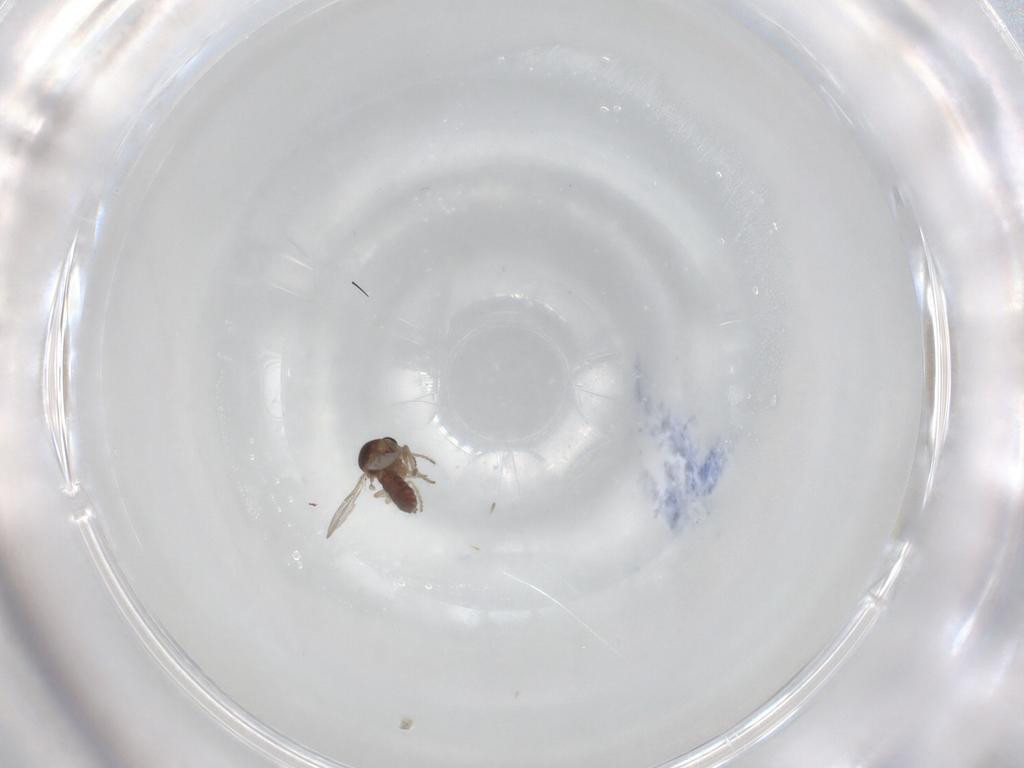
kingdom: Animalia
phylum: Arthropoda
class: Insecta
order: Diptera
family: Ceratopogonidae
